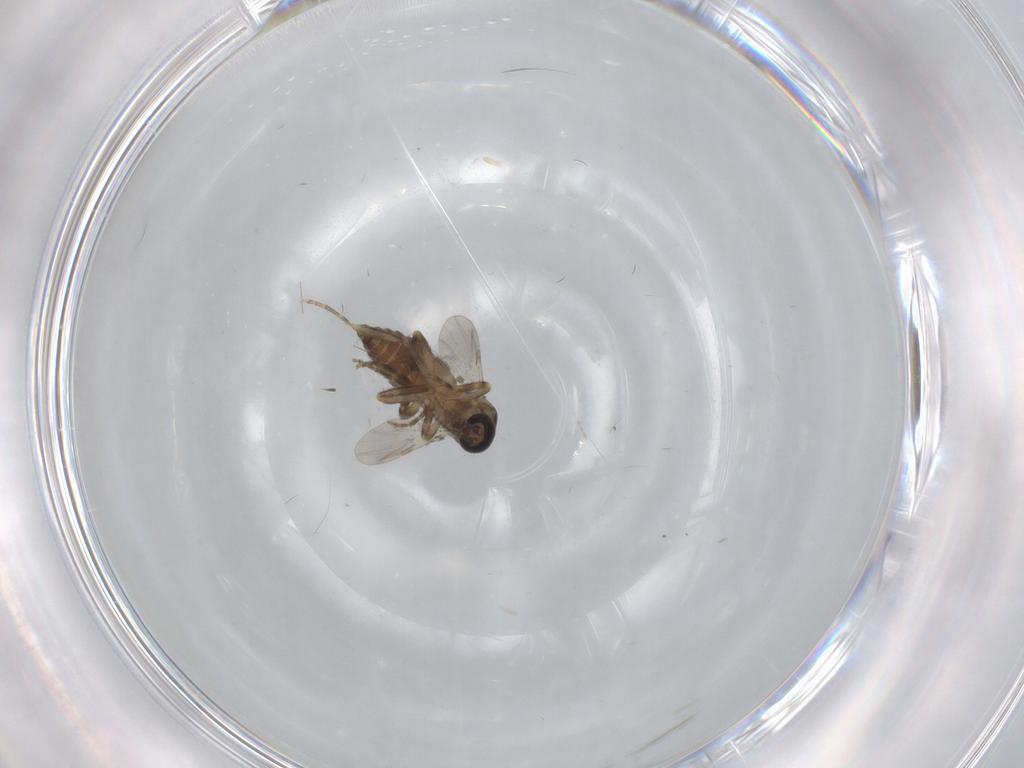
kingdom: Animalia
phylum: Arthropoda
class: Insecta
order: Diptera
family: Ceratopogonidae
